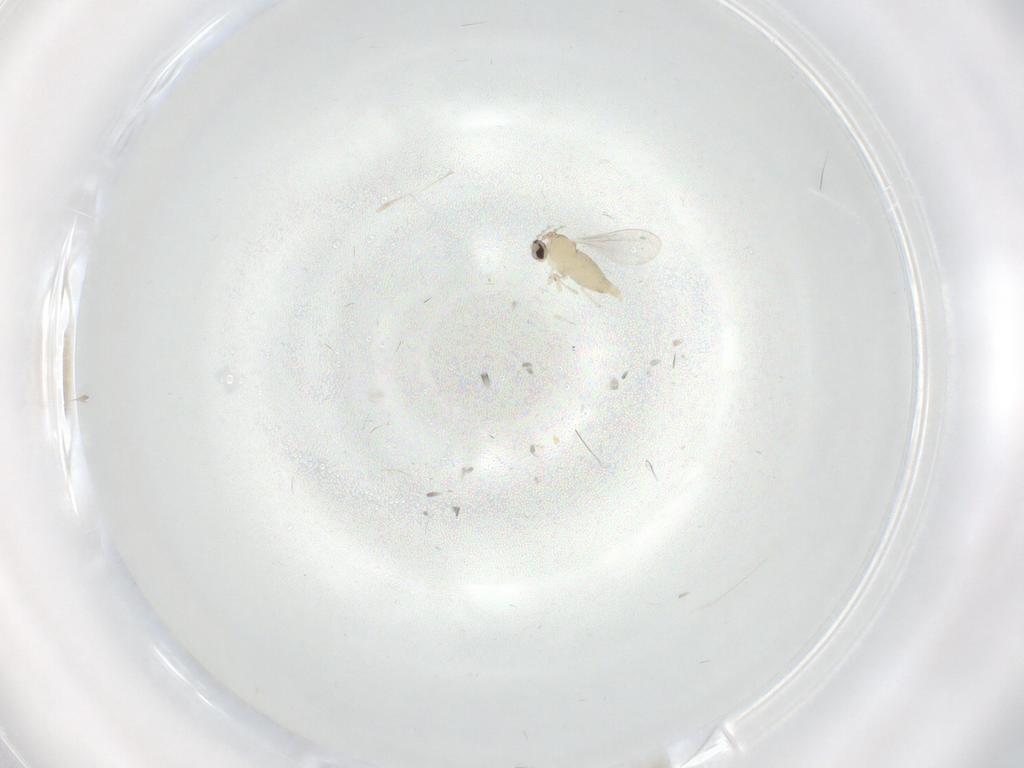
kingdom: Animalia
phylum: Arthropoda
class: Insecta
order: Diptera
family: Cecidomyiidae
